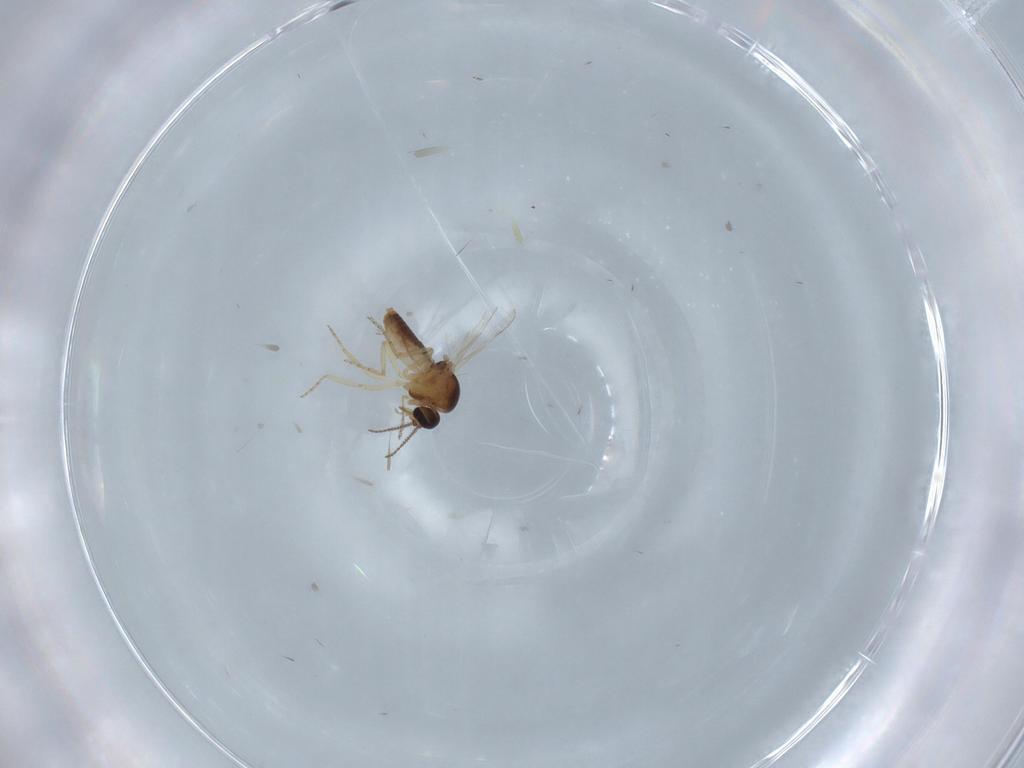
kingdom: Animalia
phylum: Arthropoda
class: Insecta
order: Diptera
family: Ceratopogonidae
